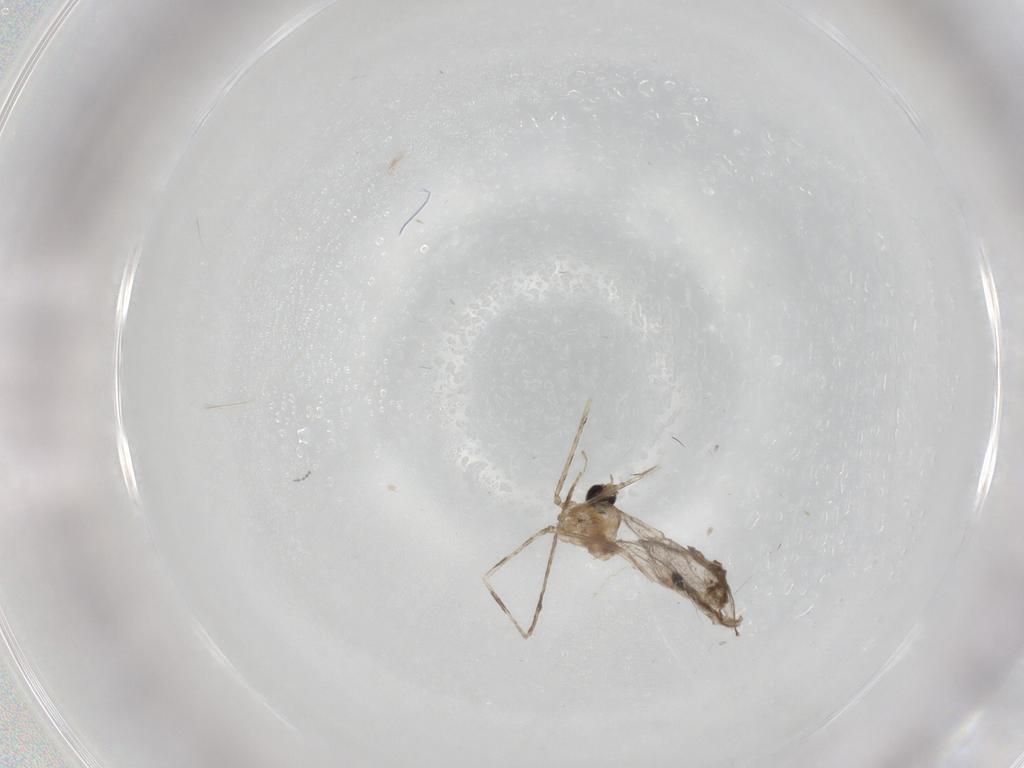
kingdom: Animalia
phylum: Arthropoda
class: Insecta
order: Diptera
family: Cecidomyiidae
